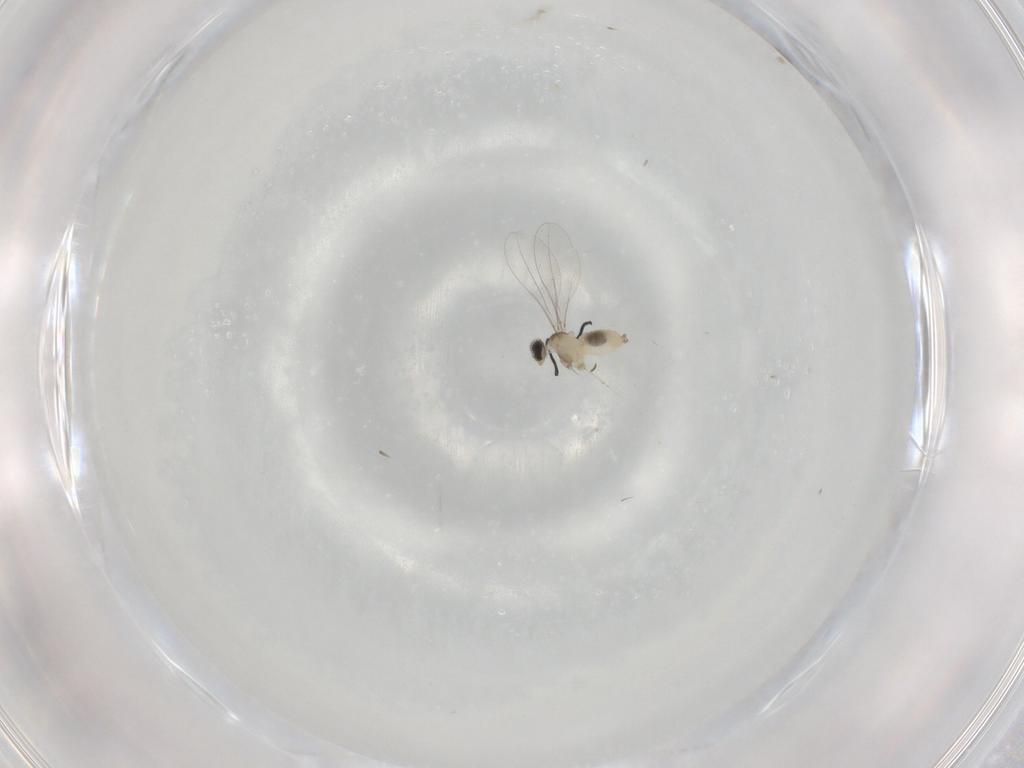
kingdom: Animalia
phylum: Arthropoda
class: Insecta
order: Diptera
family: Cecidomyiidae
